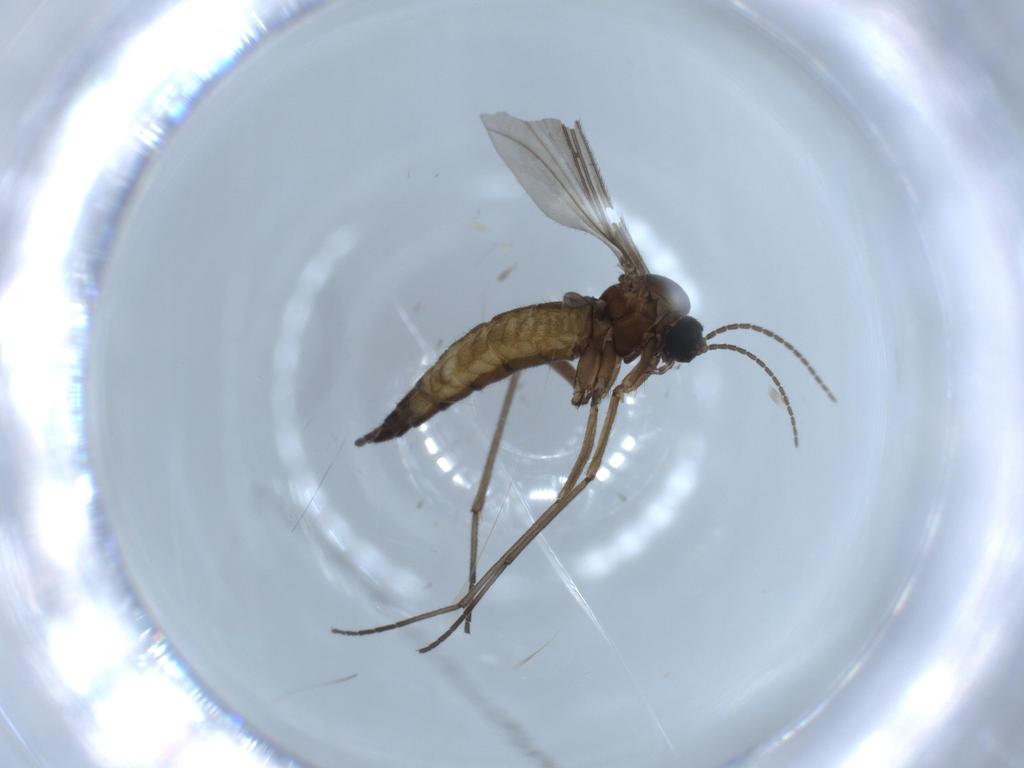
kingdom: Animalia
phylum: Arthropoda
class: Insecta
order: Diptera
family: Sciaridae
